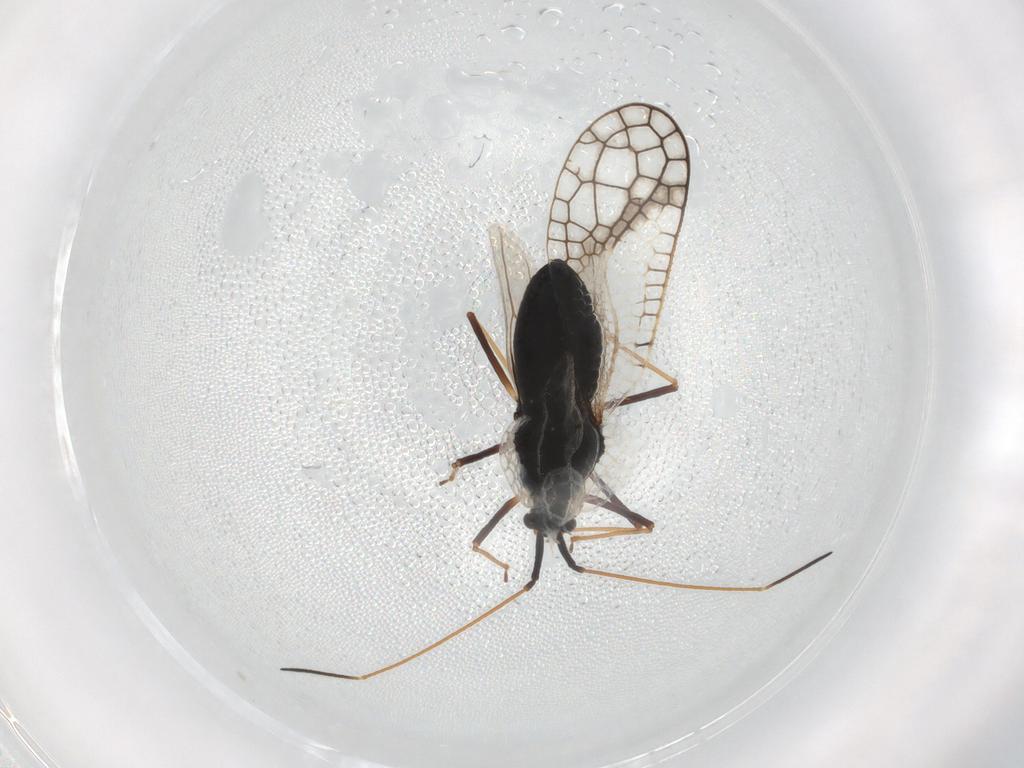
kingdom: Animalia
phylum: Arthropoda
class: Insecta
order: Hemiptera
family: Tingidae
